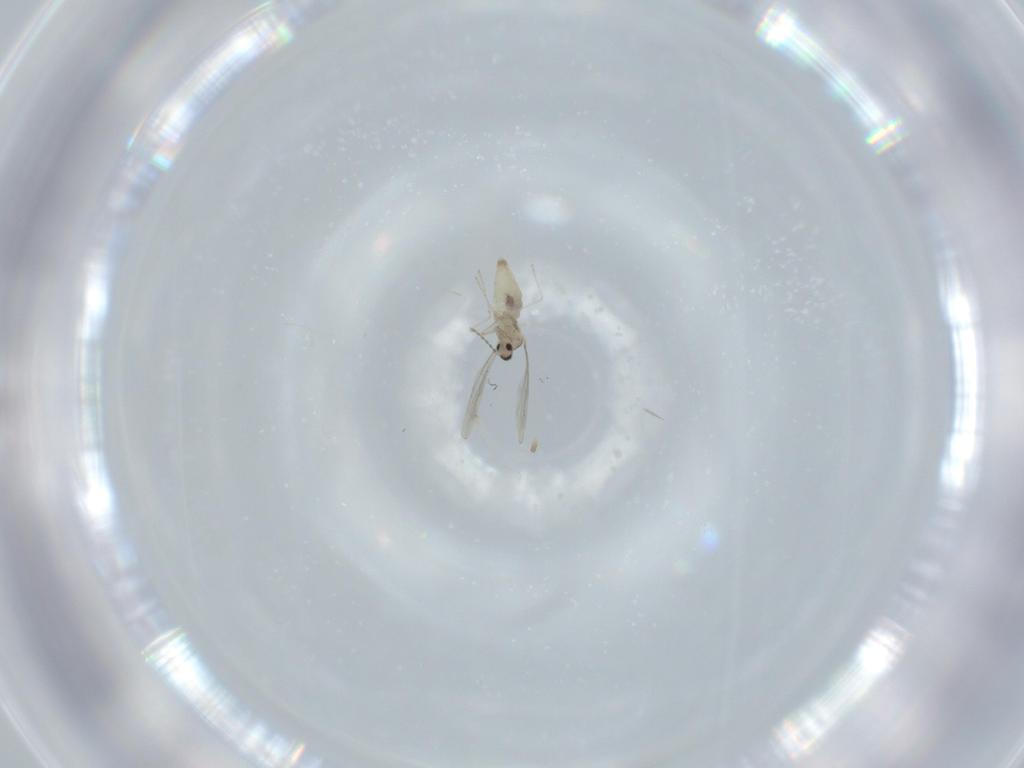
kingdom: Animalia
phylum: Arthropoda
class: Insecta
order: Diptera
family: Cecidomyiidae
